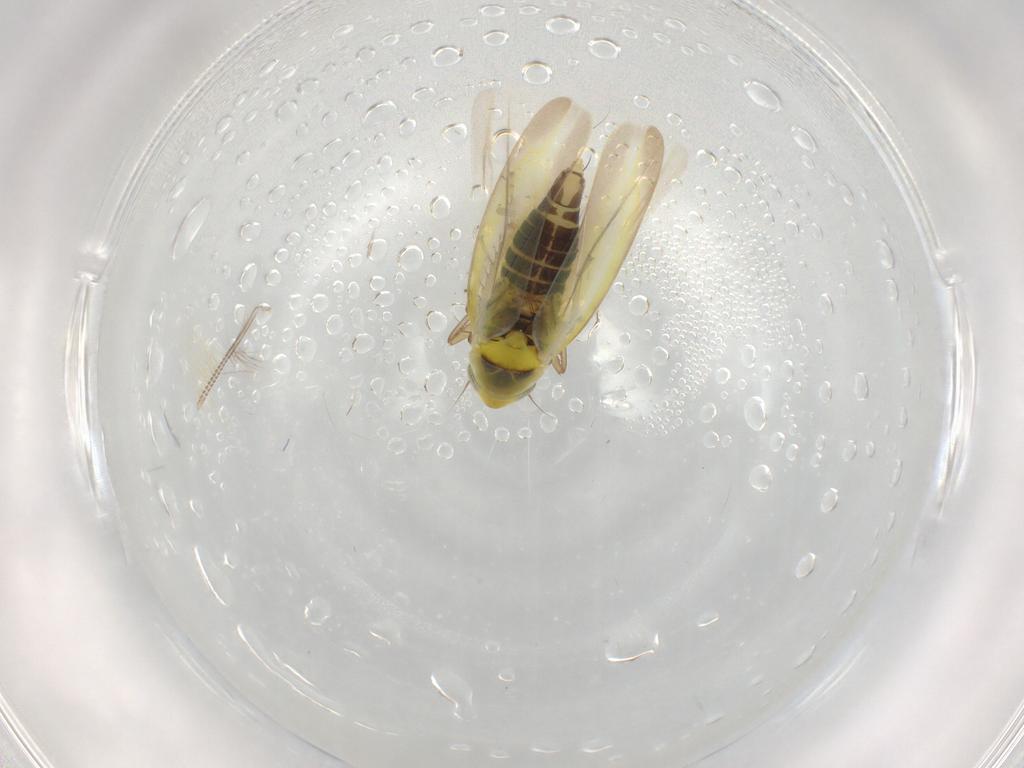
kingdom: Animalia
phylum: Arthropoda
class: Insecta
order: Hemiptera
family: Cicadellidae
